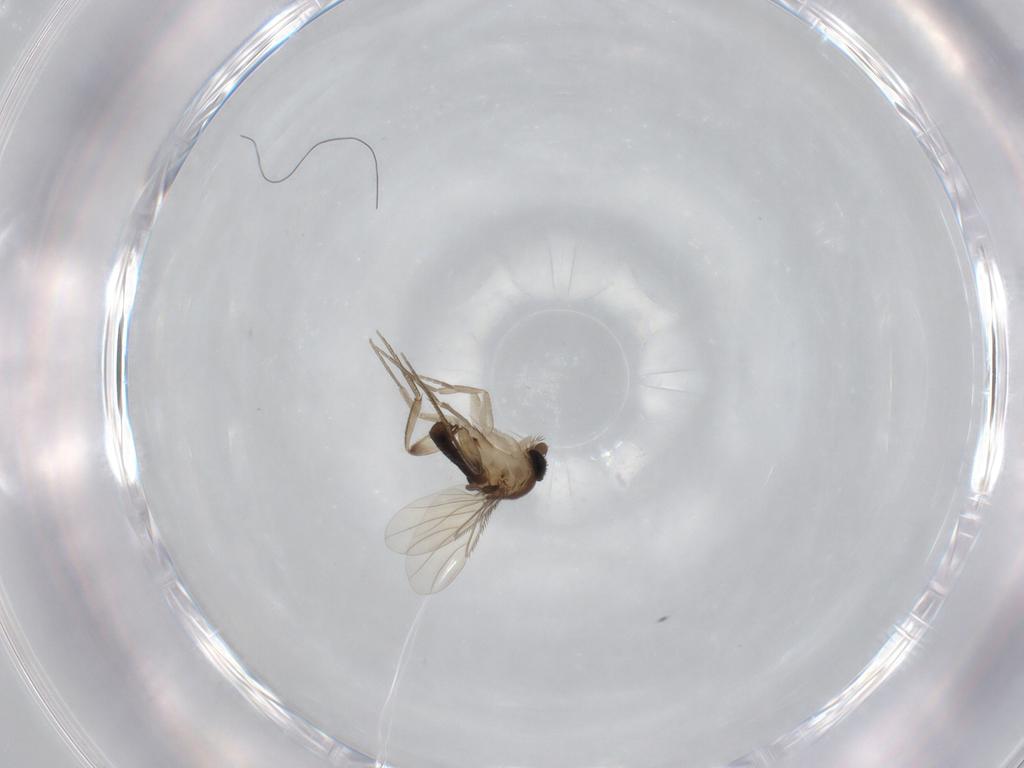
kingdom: Animalia
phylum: Arthropoda
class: Insecta
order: Diptera
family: Phoridae
